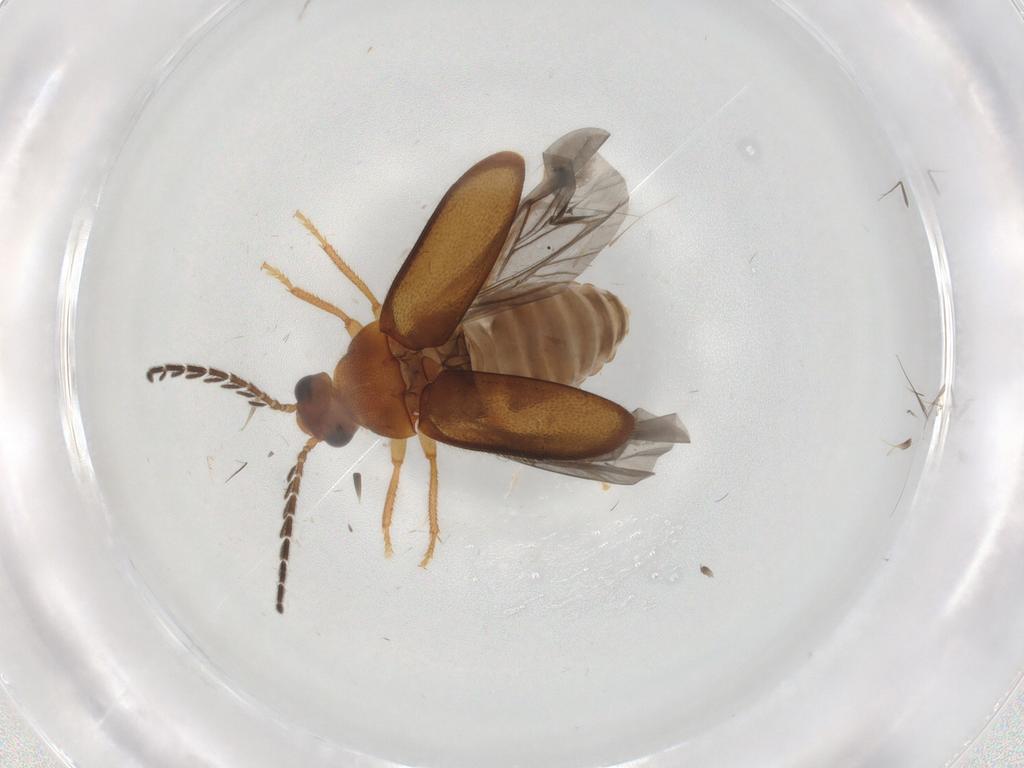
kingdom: Animalia
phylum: Arthropoda
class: Insecta
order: Coleoptera
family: Ptilodactylidae
